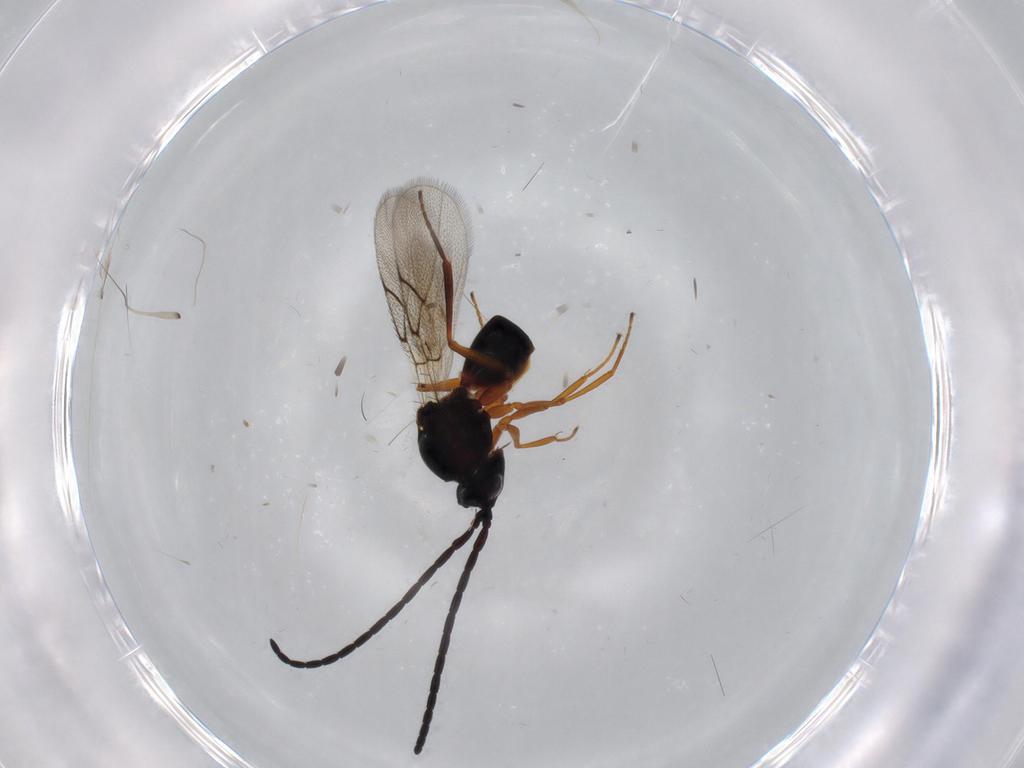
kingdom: Animalia
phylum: Arthropoda
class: Insecta
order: Hymenoptera
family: Figitidae
